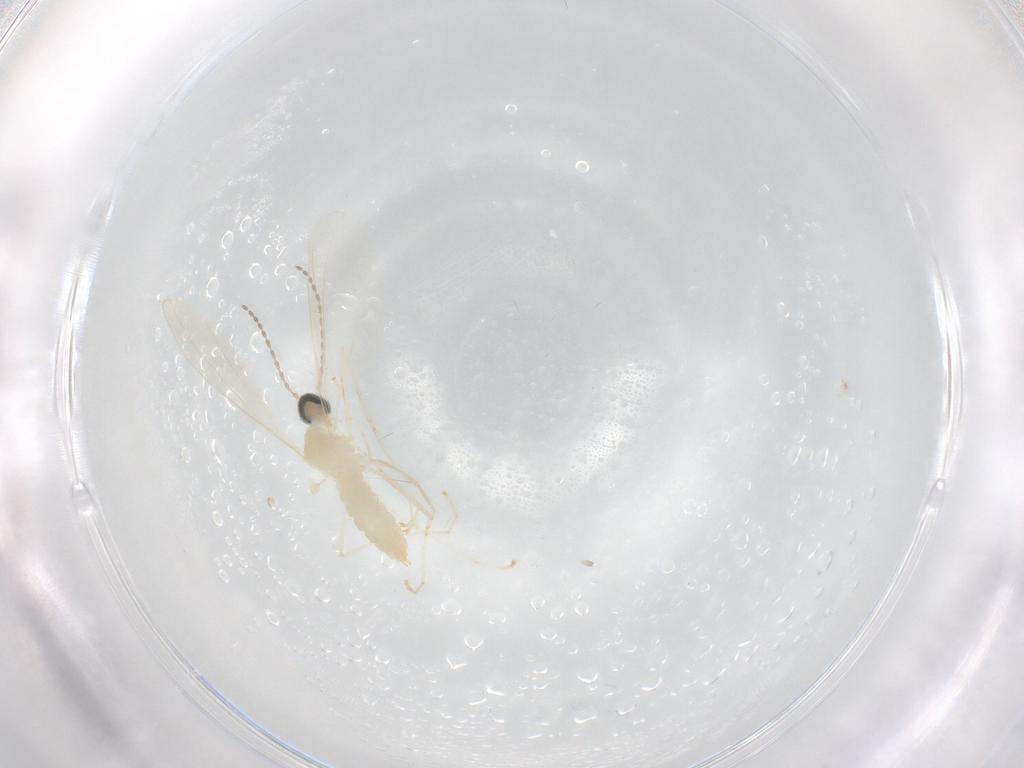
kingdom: Animalia
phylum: Arthropoda
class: Insecta
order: Diptera
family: Cecidomyiidae
